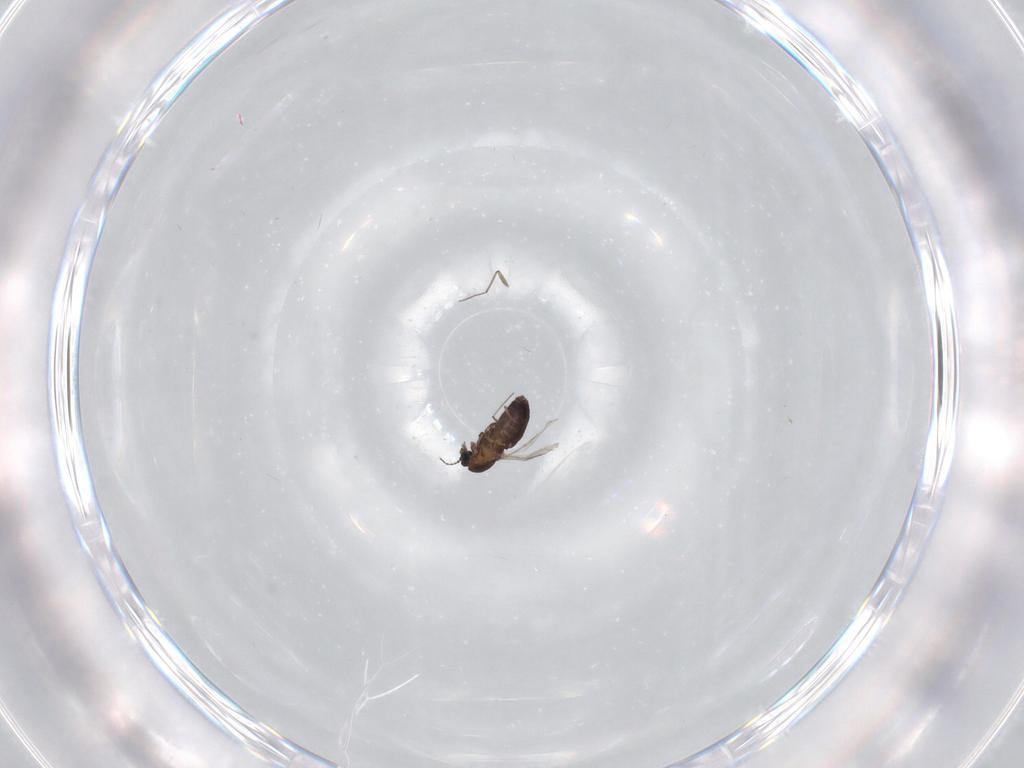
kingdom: Animalia
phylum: Arthropoda
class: Insecta
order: Diptera
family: Chironomidae
